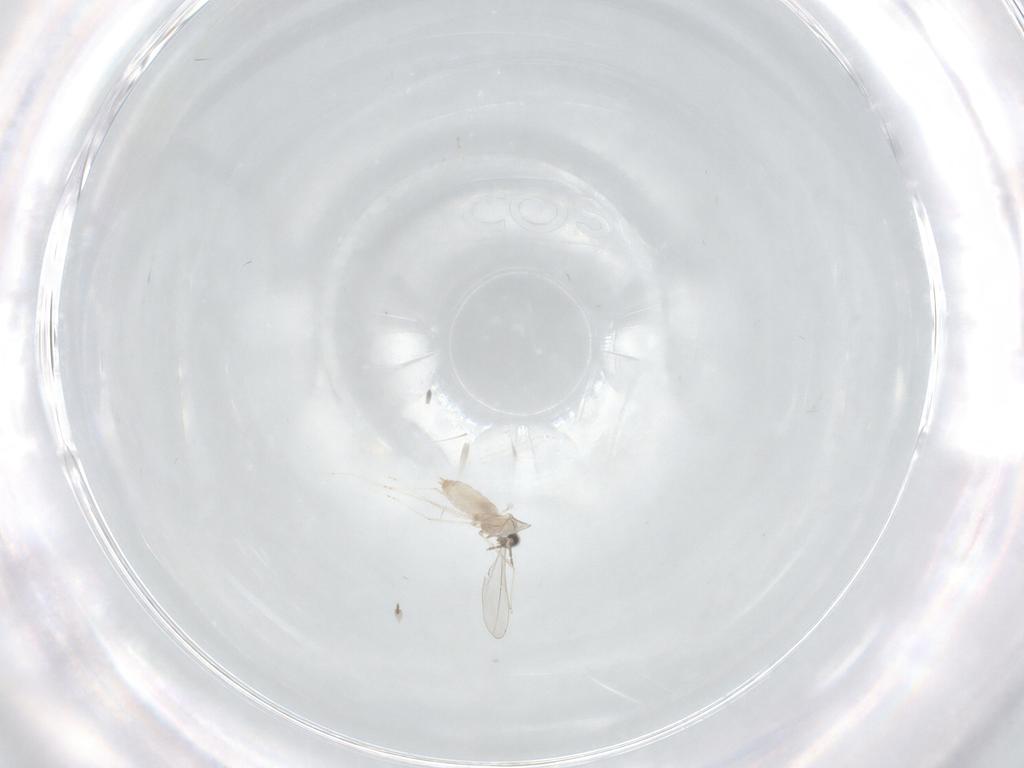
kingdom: Animalia
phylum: Arthropoda
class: Insecta
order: Diptera
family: Cecidomyiidae
